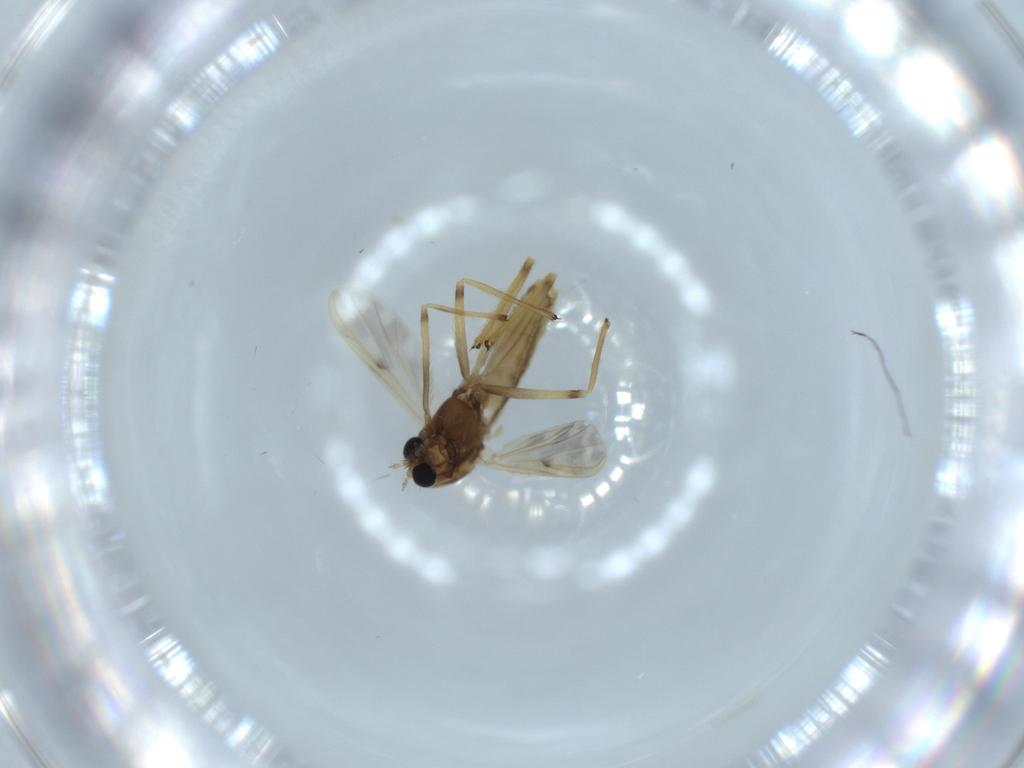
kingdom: Animalia
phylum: Arthropoda
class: Insecta
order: Diptera
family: Chironomidae
